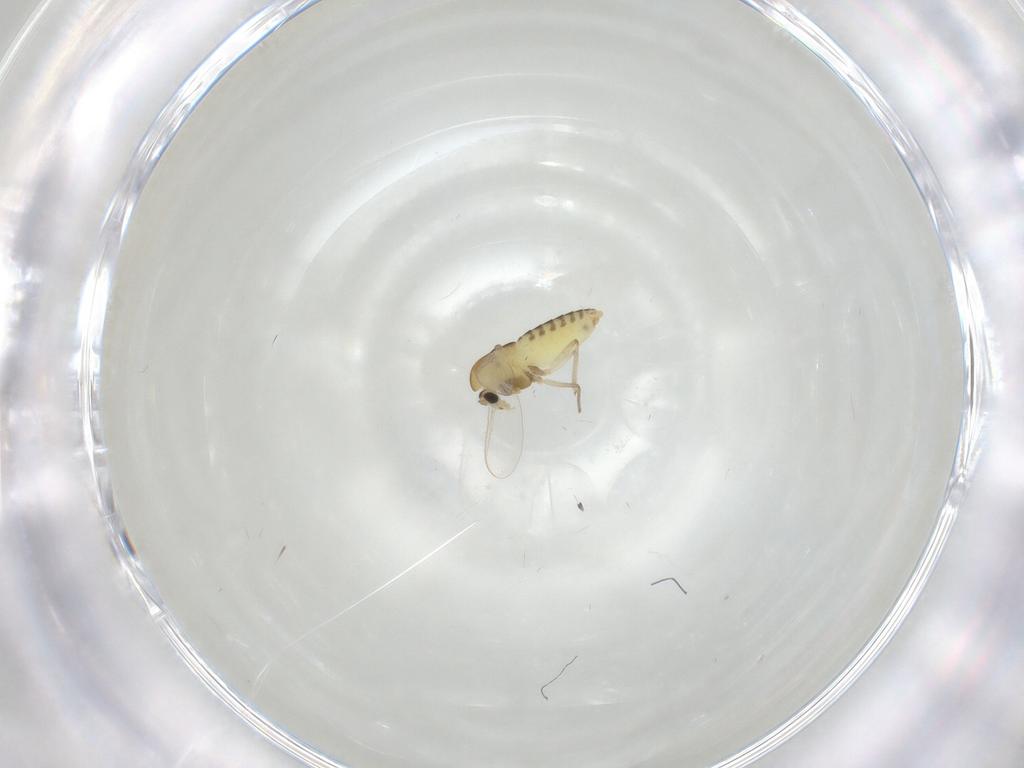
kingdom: Animalia
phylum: Arthropoda
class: Insecta
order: Diptera
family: Chironomidae
